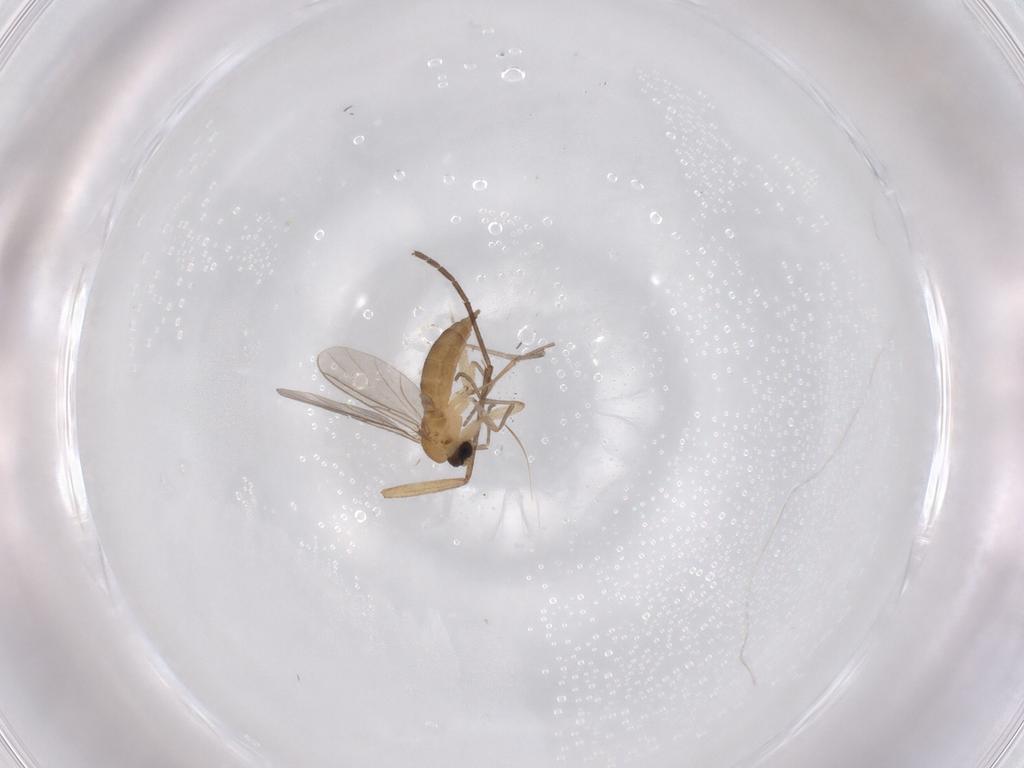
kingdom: Animalia
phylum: Arthropoda
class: Insecta
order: Diptera
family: Sciaridae
